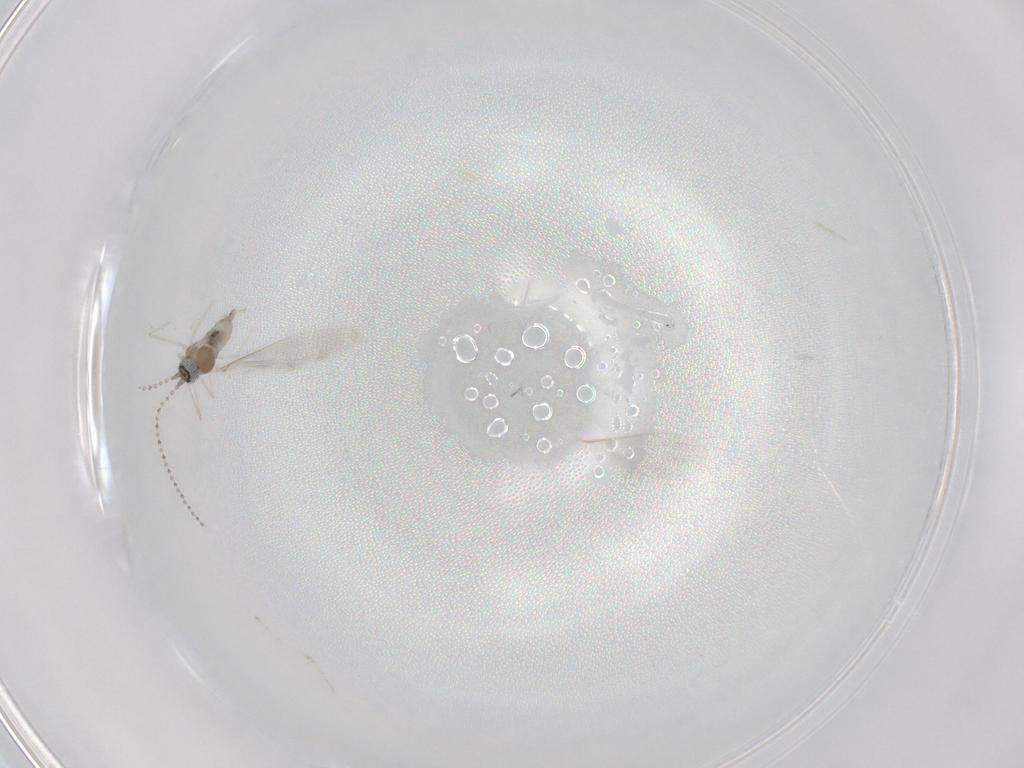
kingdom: Animalia
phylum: Arthropoda
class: Insecta
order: Diptera
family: Cecidomyiidae
